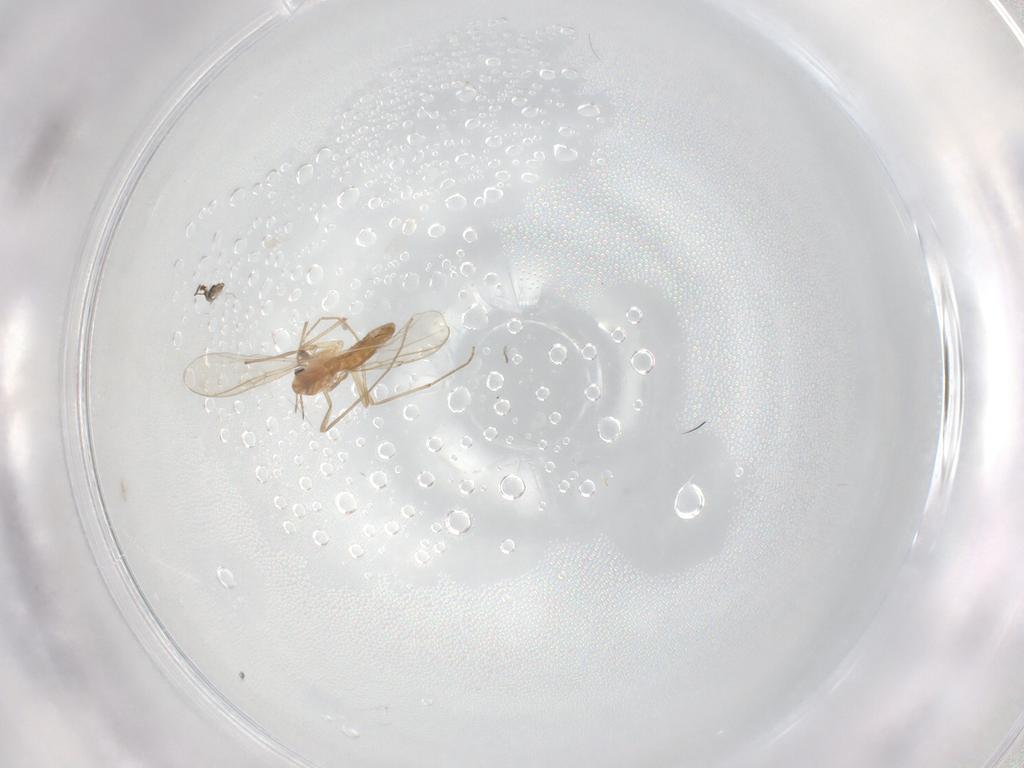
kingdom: Animalia
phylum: Arthropoda
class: Insecta
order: Diptera
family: Chironomidae
